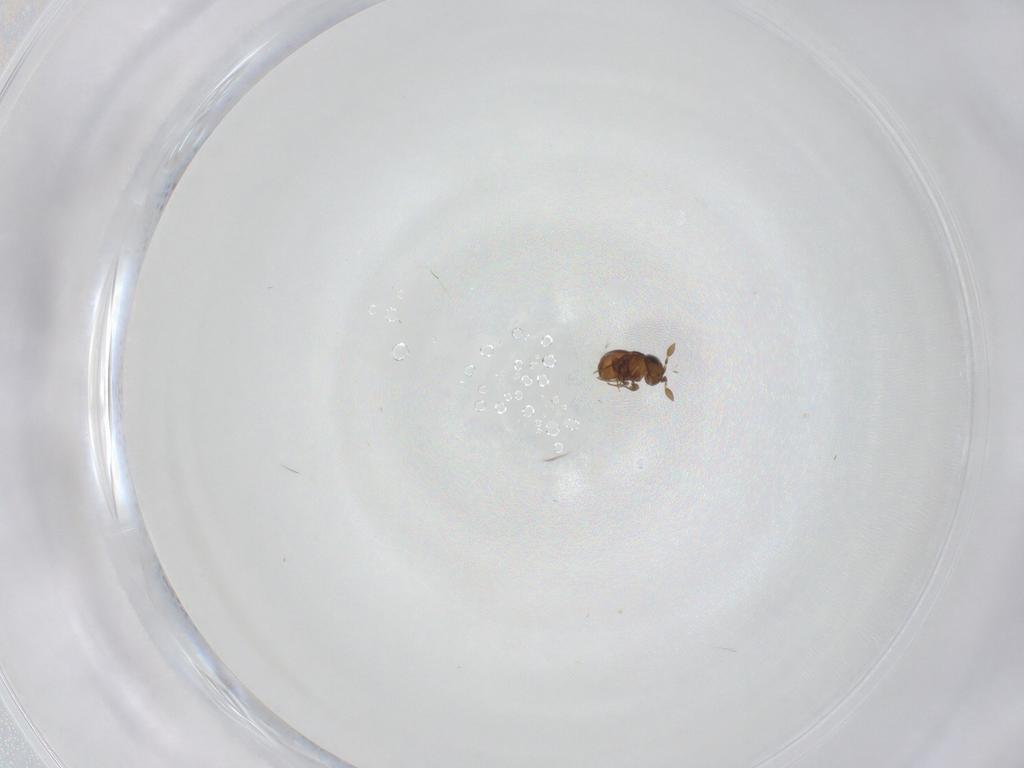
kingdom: Animalia
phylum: Arthropoda
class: Insecta
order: Hymenoptera
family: Scelionidae
